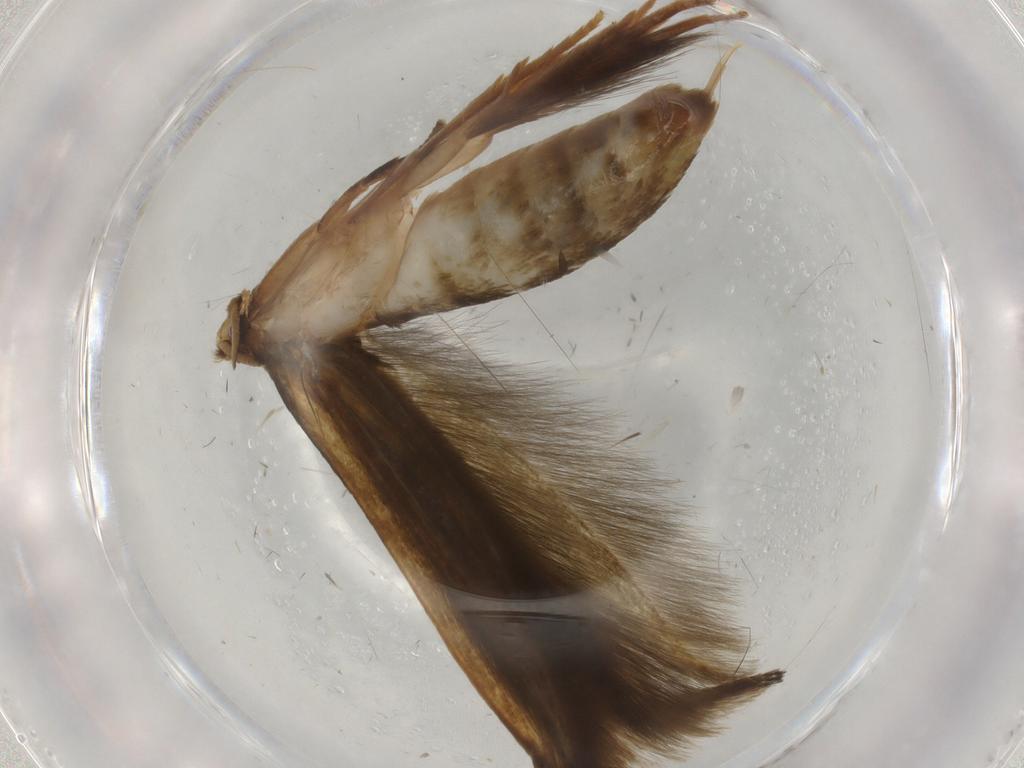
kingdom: Animalia
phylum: Arthropoda
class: Insecta
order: Lepidoptera
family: Tineidae
